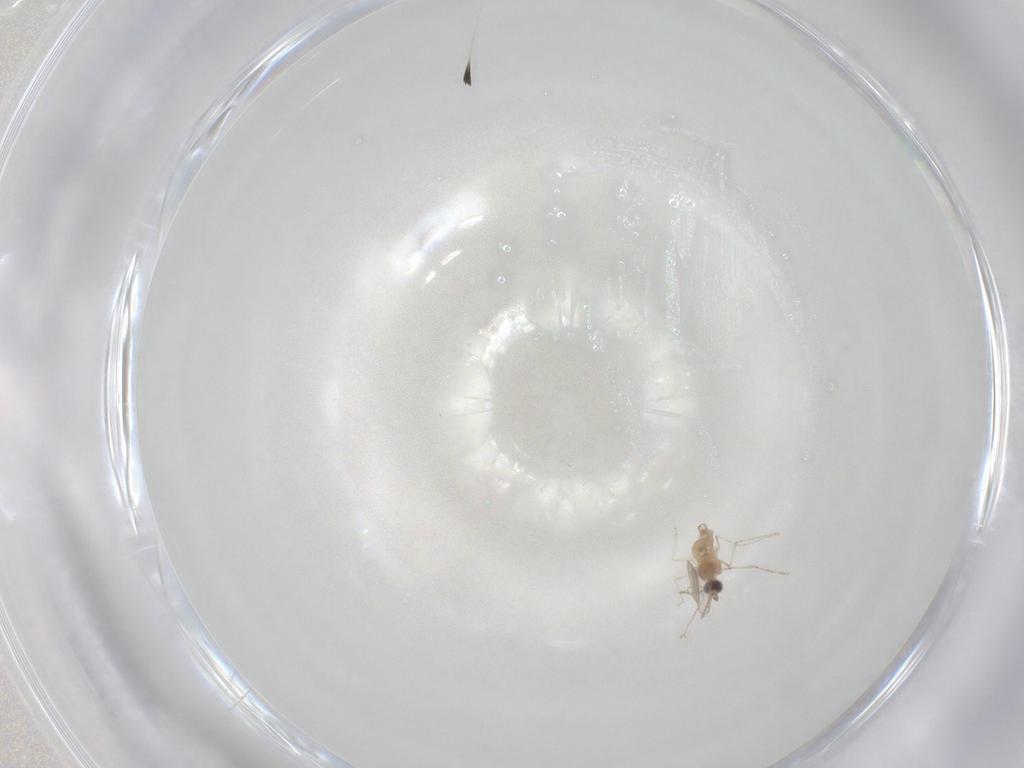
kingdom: Animalia
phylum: Arthropoda
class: Insecta
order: Diptera
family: Cecidomyiidae
